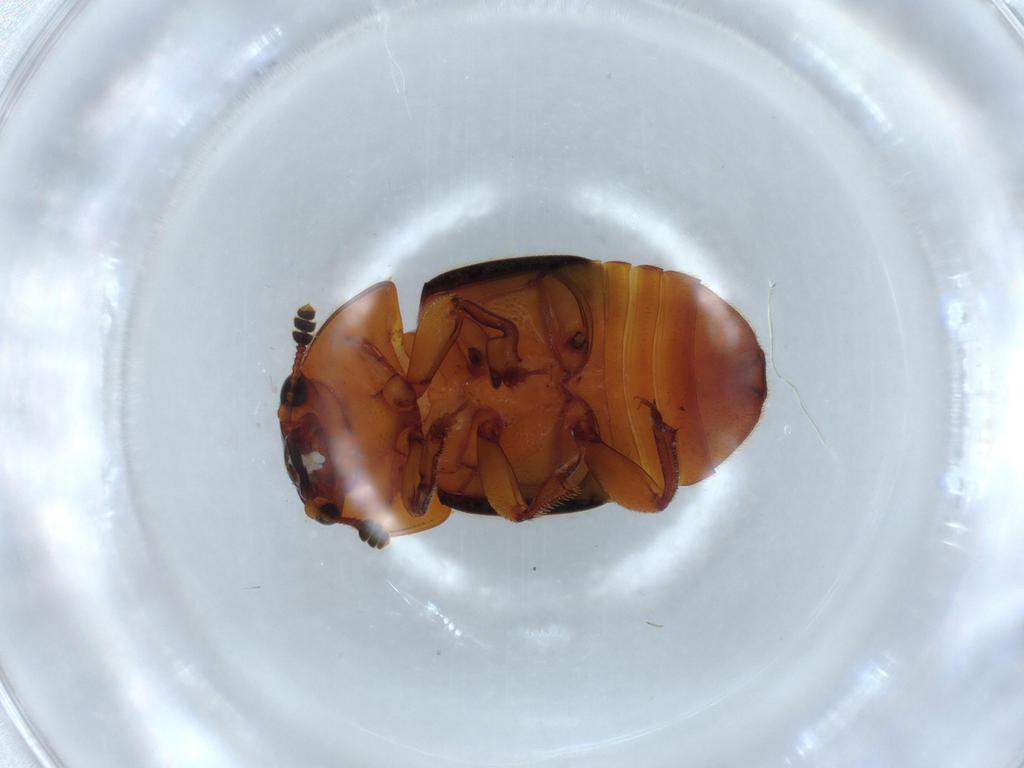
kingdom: Animalia
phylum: Arthropoda
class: Insecta
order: Coleoptera
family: Nitidulidae
